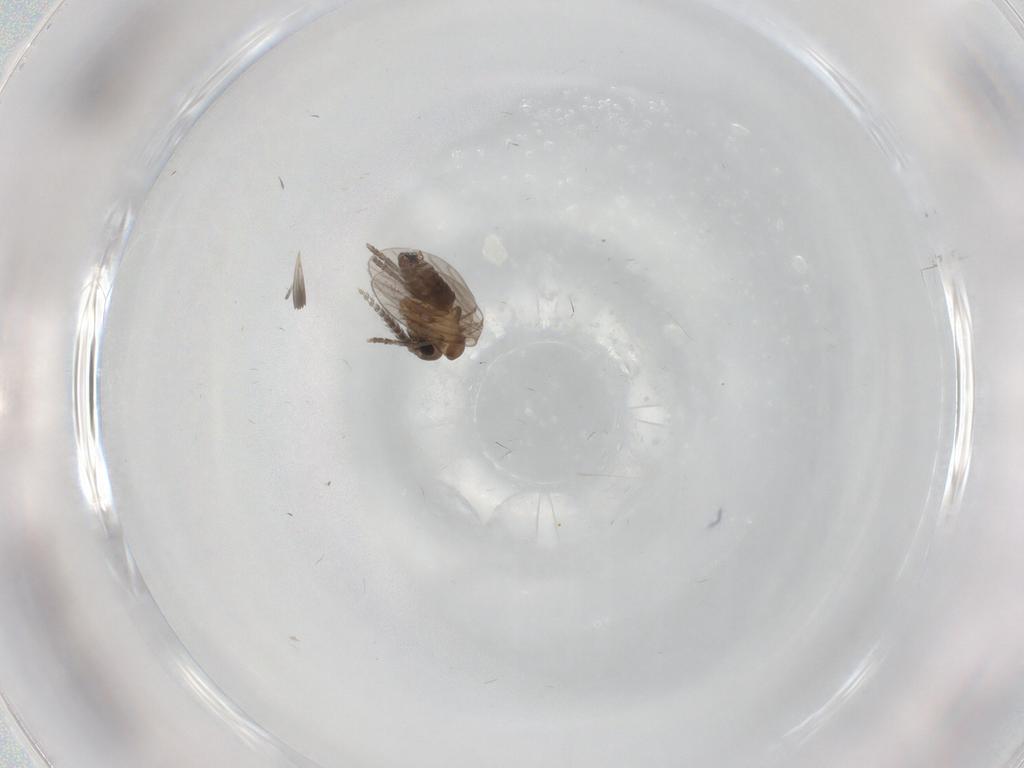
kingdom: Animalia
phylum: Arthropoda
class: Insecta
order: Diptera
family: Phoridae
